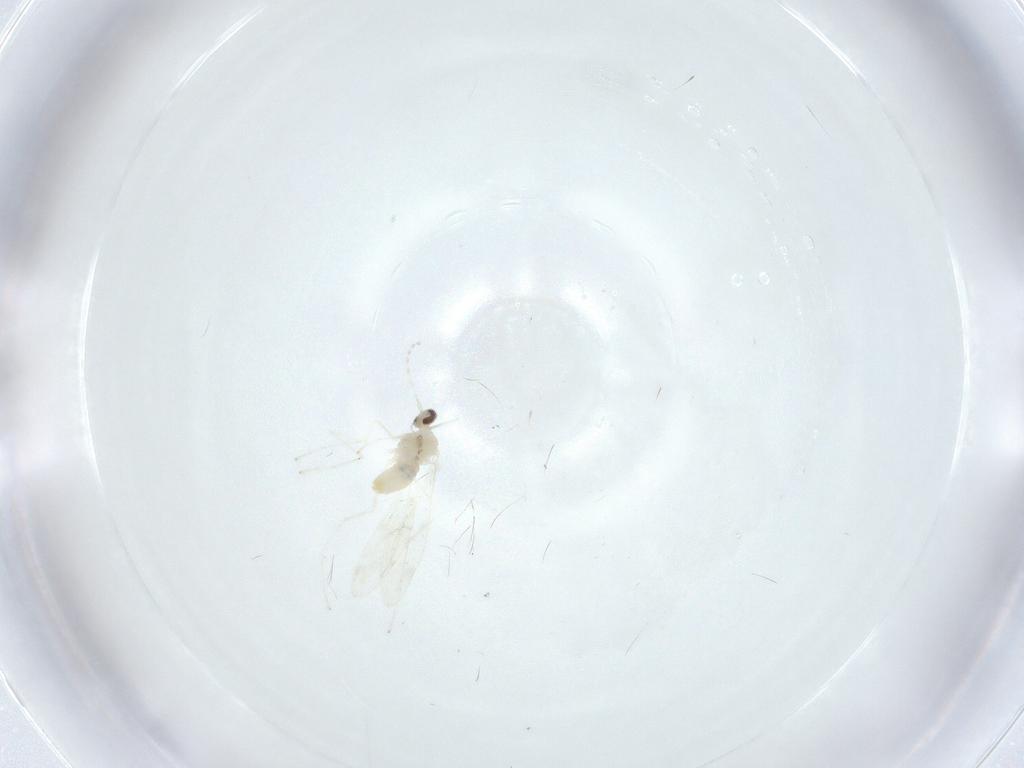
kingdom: Animalia
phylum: Arthropoda
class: Insecta
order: Diptera
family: Cecidomyiidae
